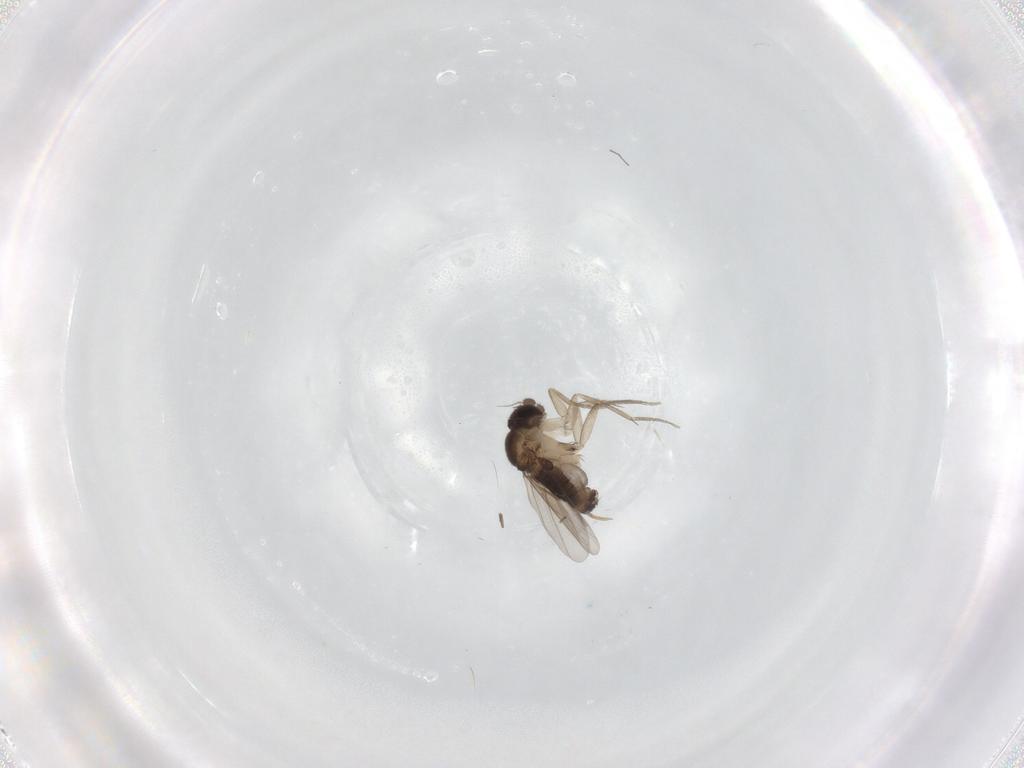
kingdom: Animalia
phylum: Arthropoda
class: Insecta
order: Diptera
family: Phoridae
